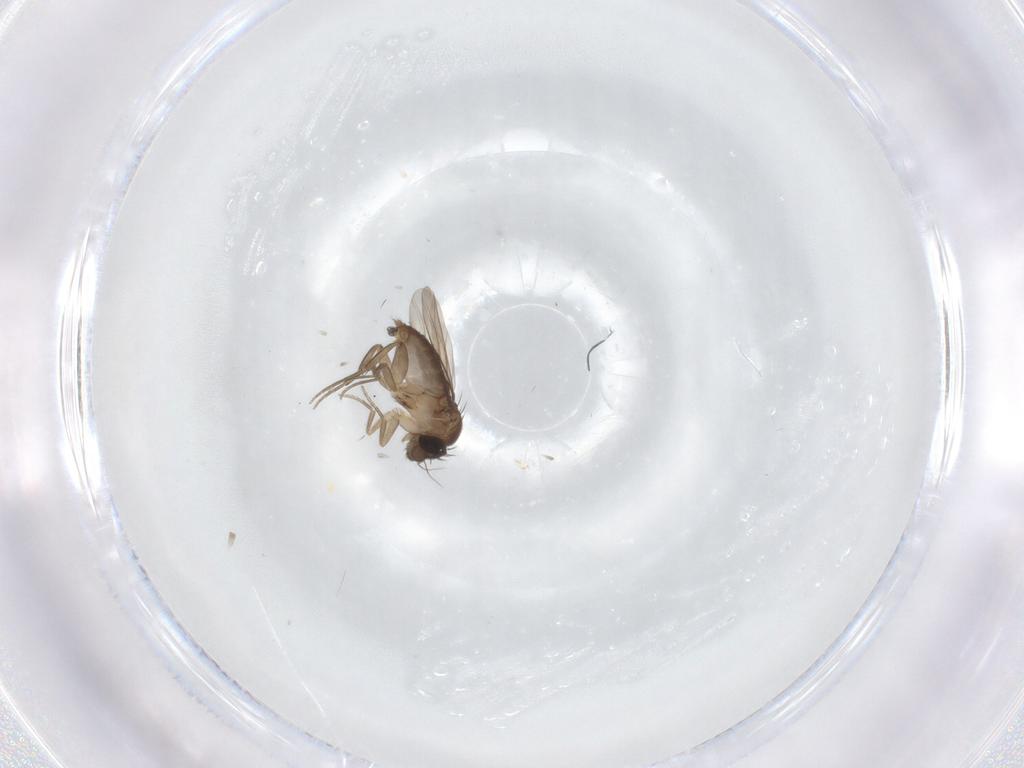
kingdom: Animalia
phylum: Arthropoda
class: Insecta
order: Diptera
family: Phoridae
